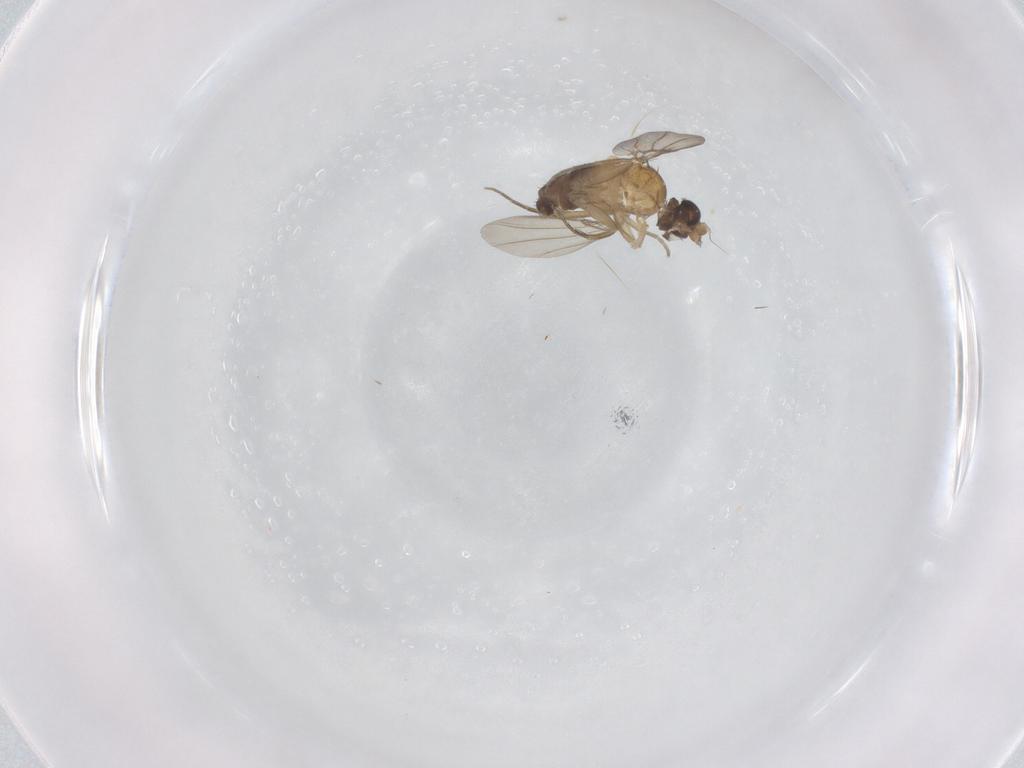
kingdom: Animalia
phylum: Arthropoda
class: Insecta
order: Diptera
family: Phoridae
